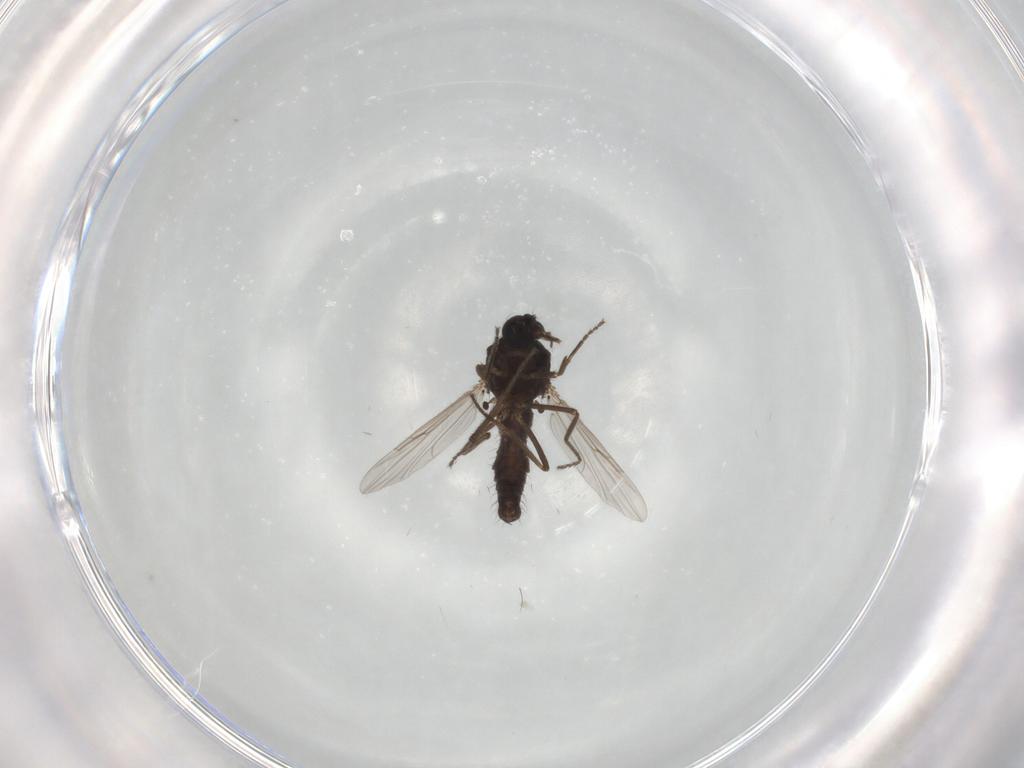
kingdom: Animalia
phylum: Arthropoda
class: Insecta
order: Diptera
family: Ceratopogonidae
